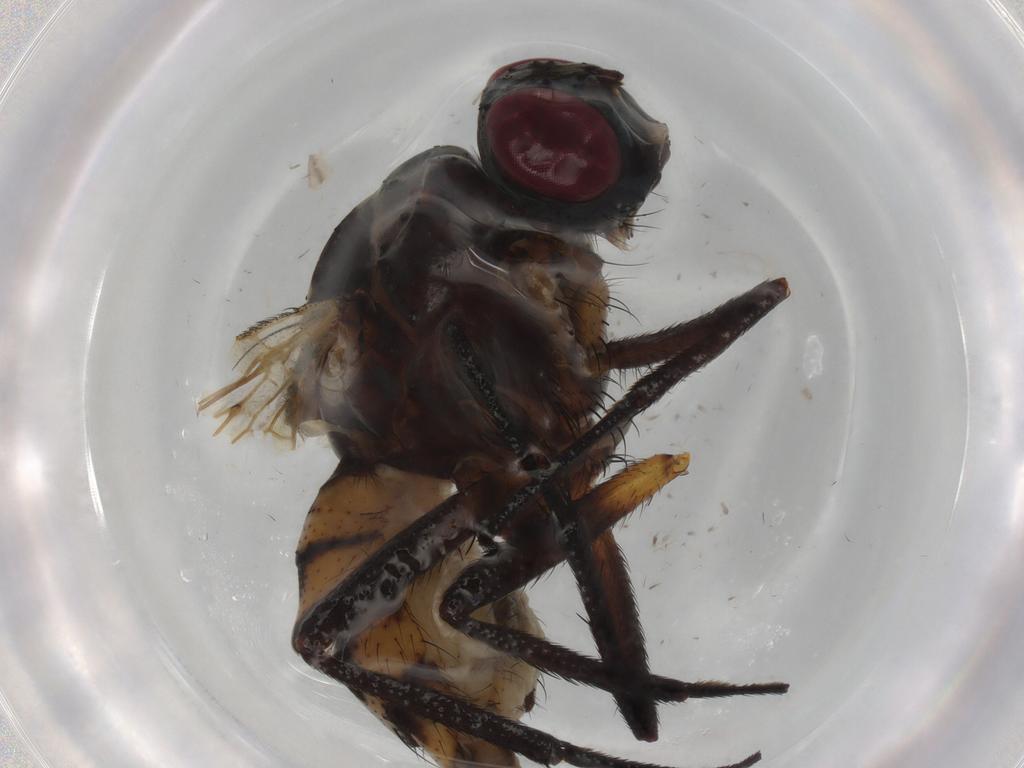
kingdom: Animalia
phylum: Arthropoda
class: Insecta
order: Diptera
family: Anthomyiidae
